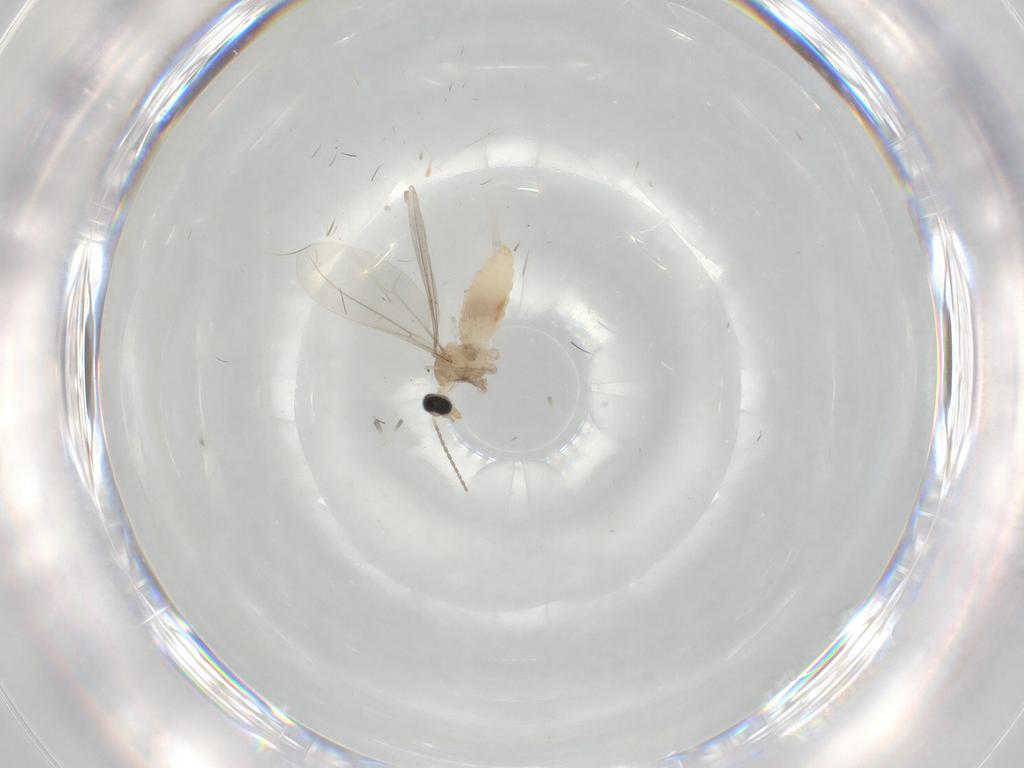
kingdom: Animalia
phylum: Arthropoda
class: Insecta
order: Diptera
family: Cecidomyiidae
